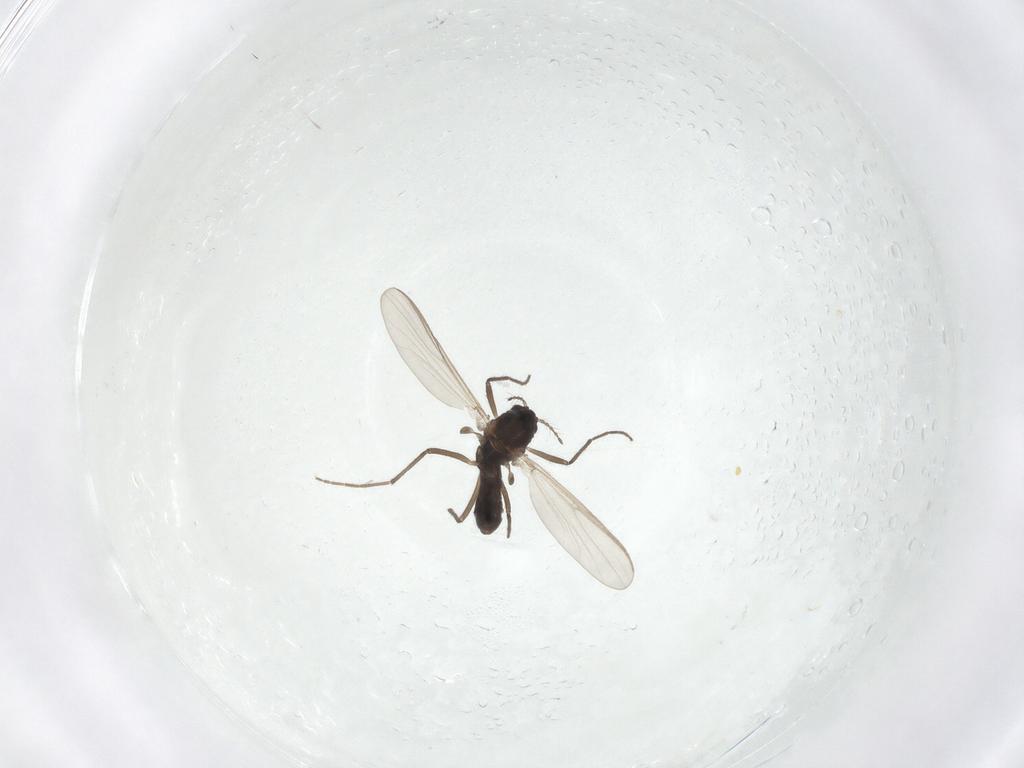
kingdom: Animalia
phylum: Arthropoda
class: Insecta
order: Diptera
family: Chironomidae
